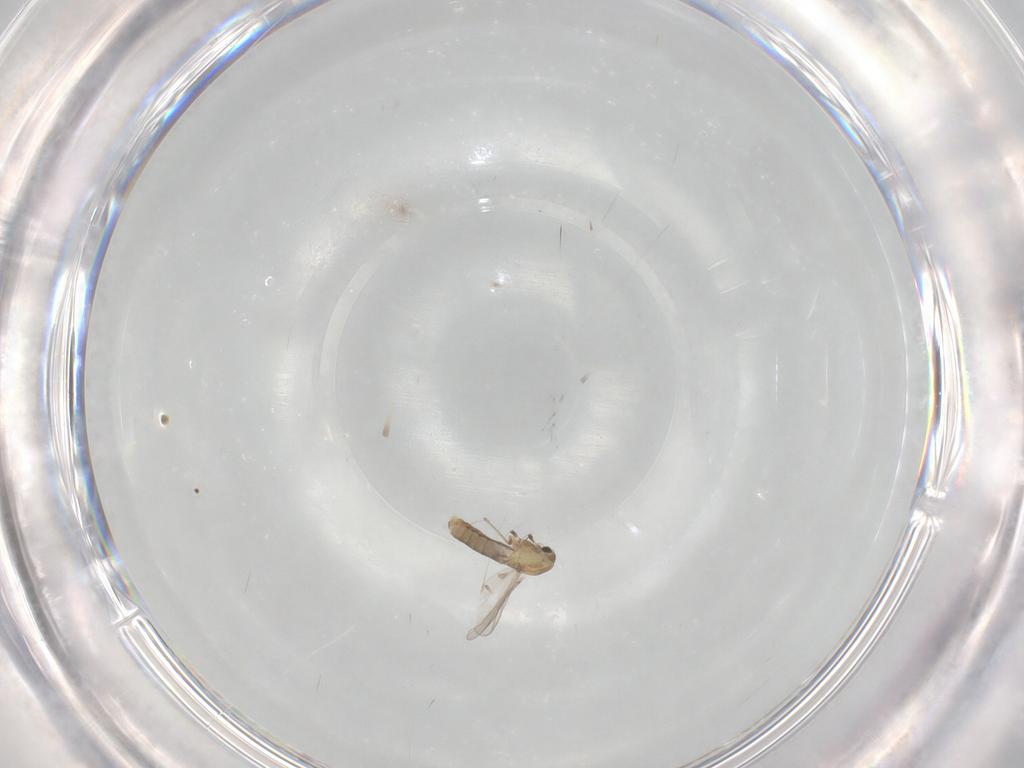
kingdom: Animalia
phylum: Arthropoda
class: Insecta
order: Diptera
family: Chironomidae
